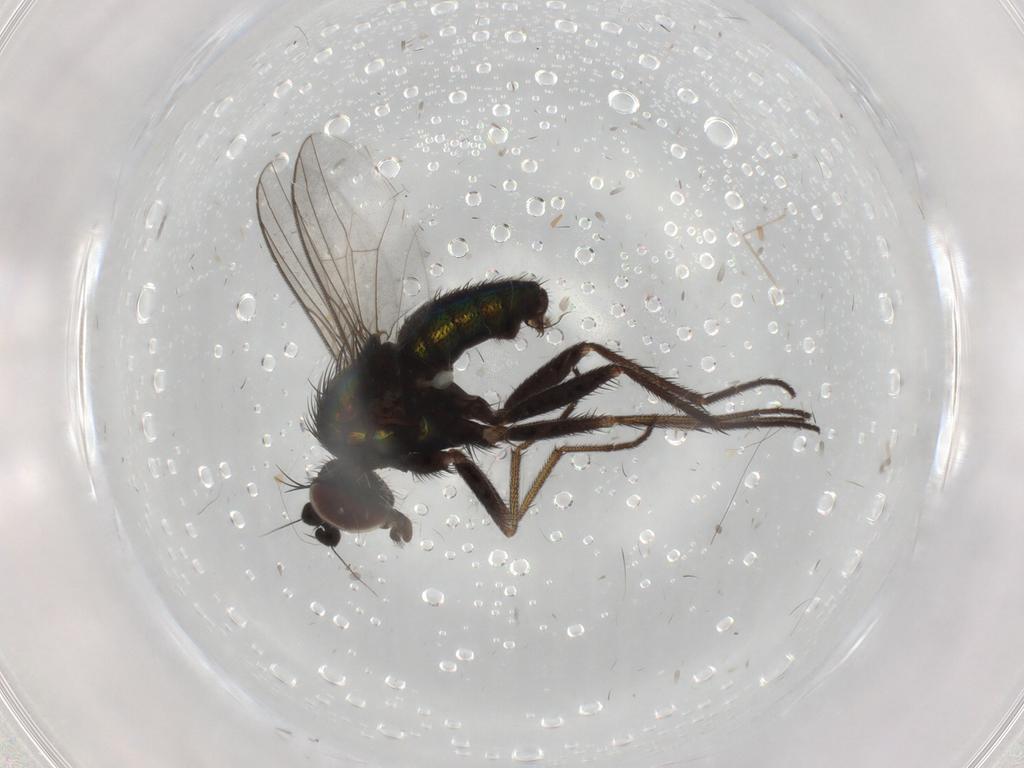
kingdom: Animalia
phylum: Arthropoda
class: Insecta
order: Diptera
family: Dolichopodidae
